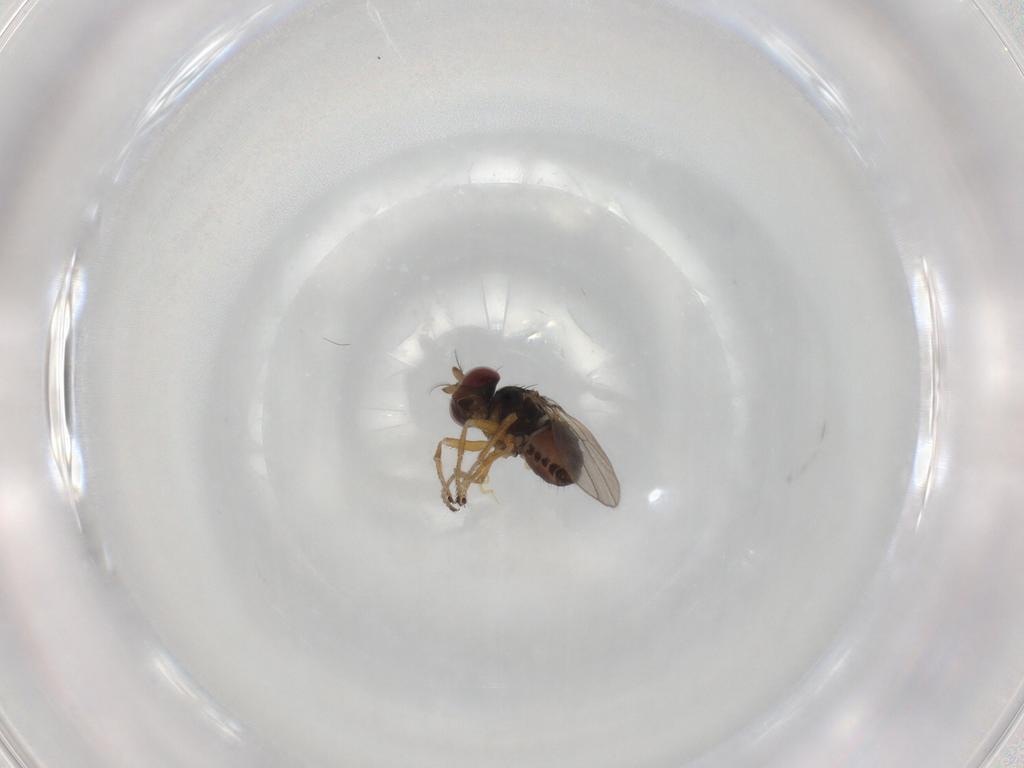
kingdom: Animalia
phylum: Arthropoda
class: Insecta
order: Diptera
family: Ephydridae
